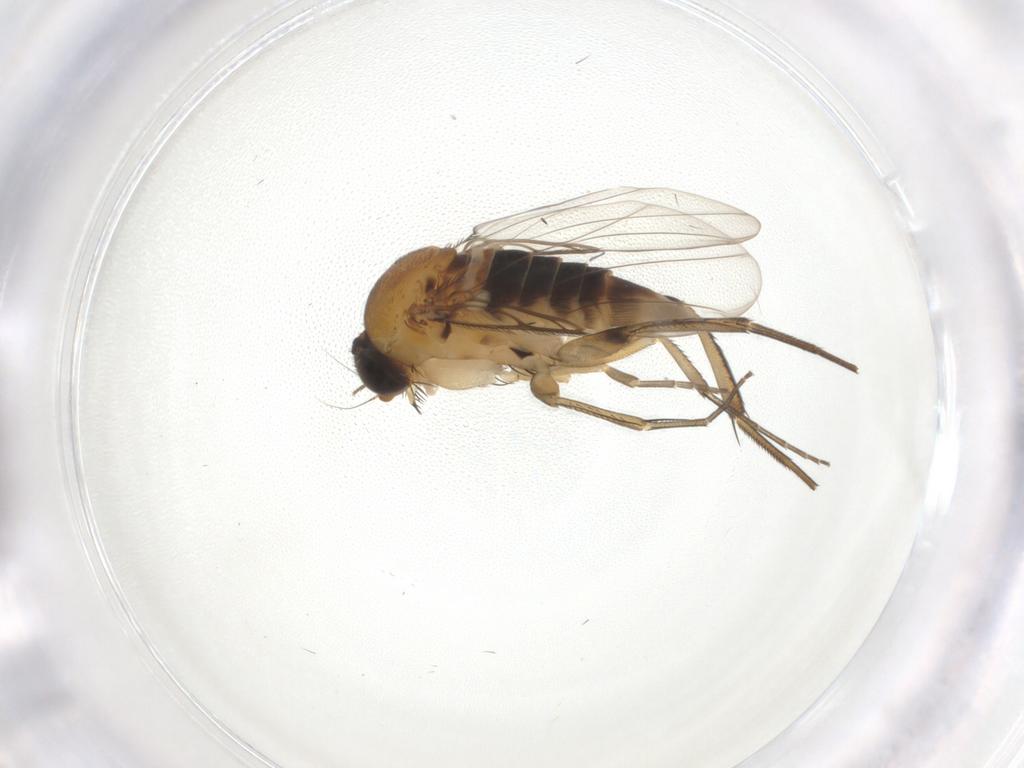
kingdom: Animalia
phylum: Arthropoda
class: Insecta
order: Diptera
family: Phoridae
